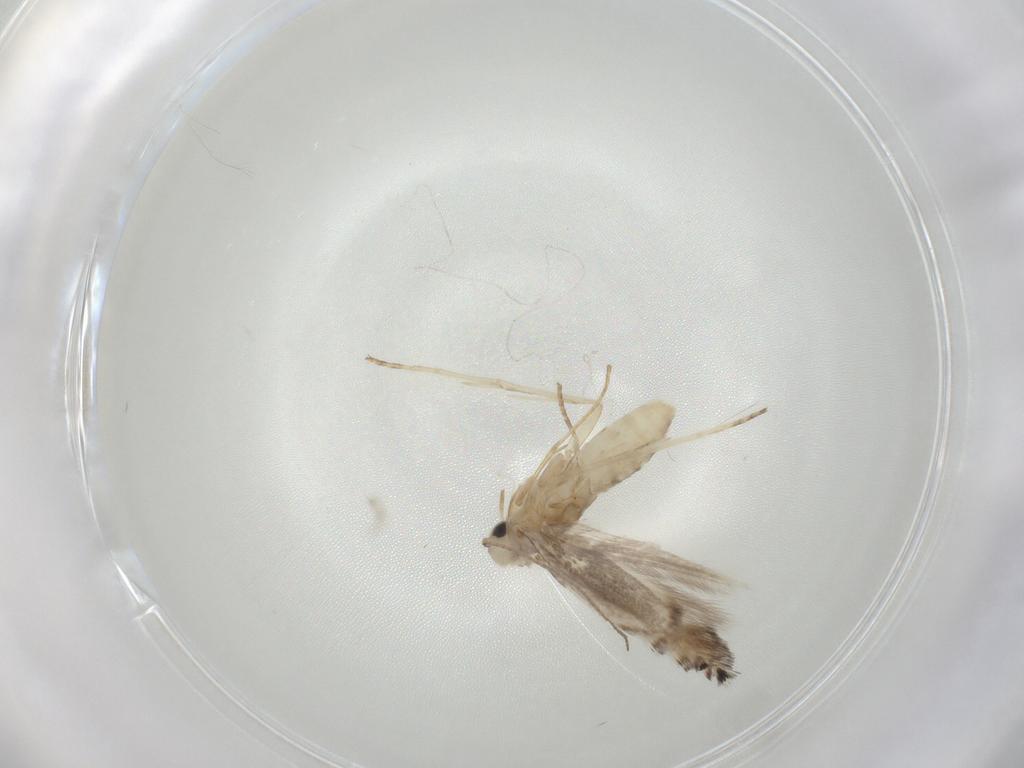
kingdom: Animalia
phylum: Arthropoda
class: Insecta
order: Lepidoptera
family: Gracillariidae
